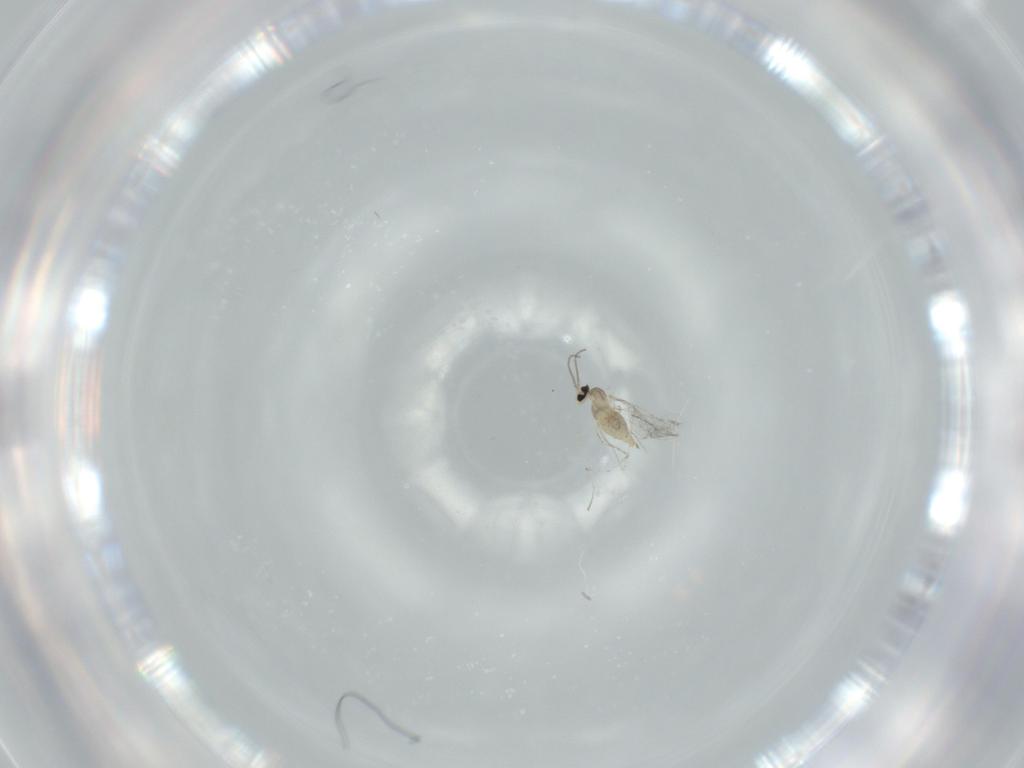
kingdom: Animalia
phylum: Arthropoda
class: Insecta
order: Diptera
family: Cecidomyiidae
